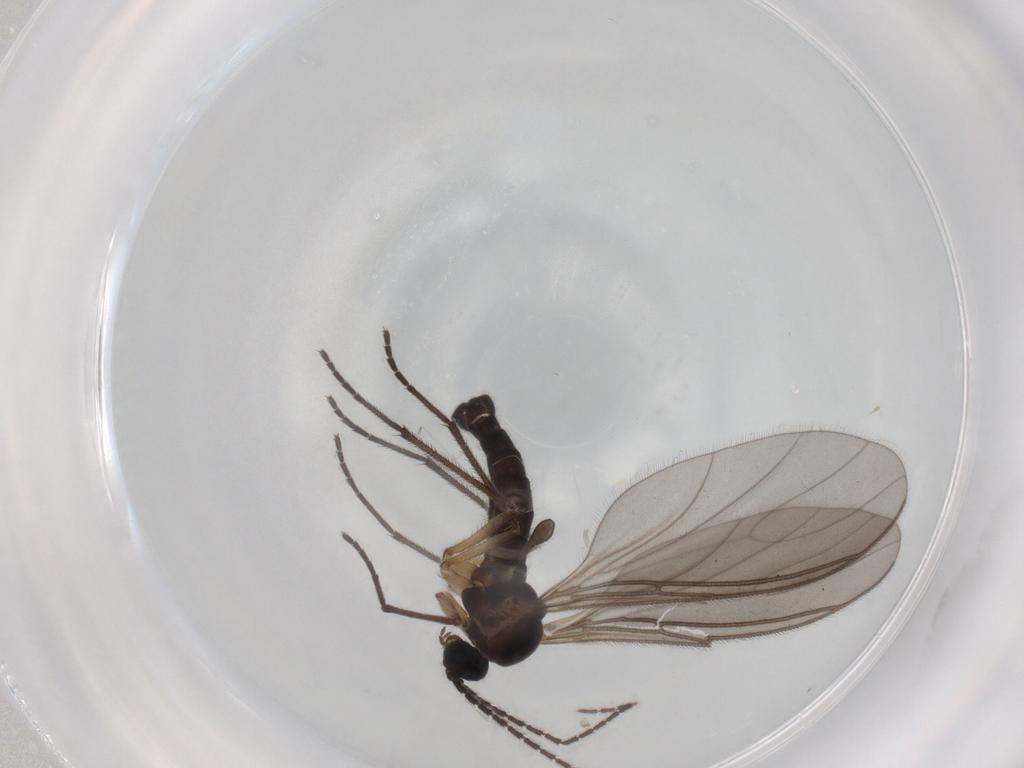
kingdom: Animalia
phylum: Arthropoda
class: Insecta
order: Diptera
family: Sciaridae
